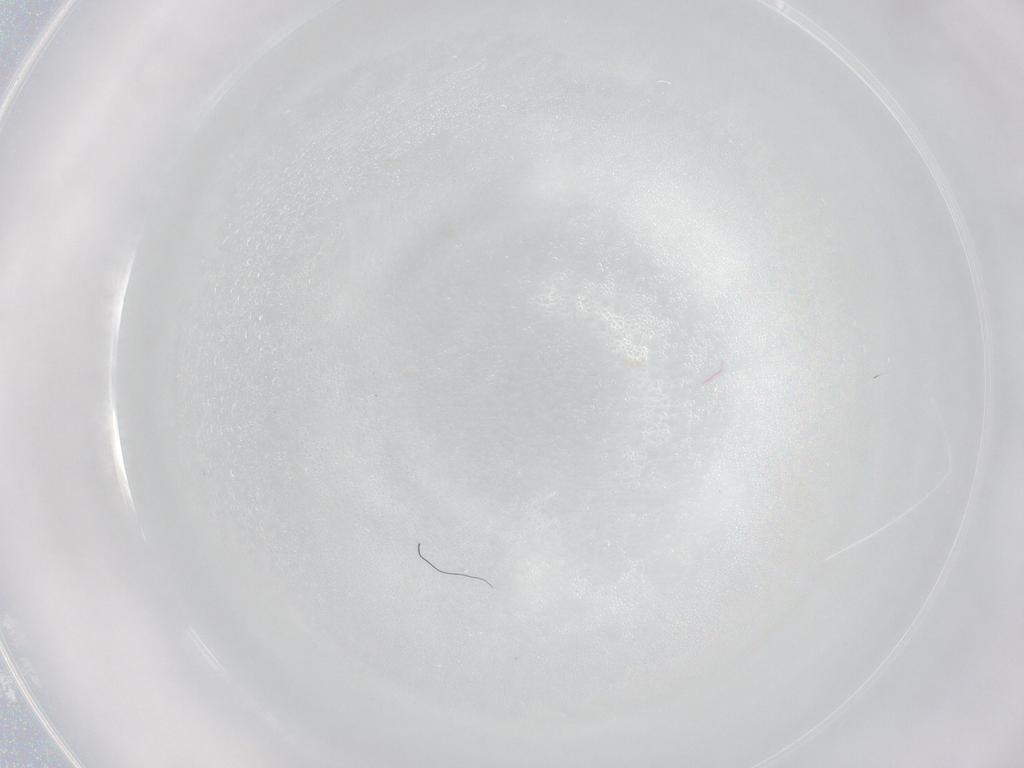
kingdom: Animalia
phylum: Arthropoda
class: Arachnida
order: Trombidiformes
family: Tetranychidae
